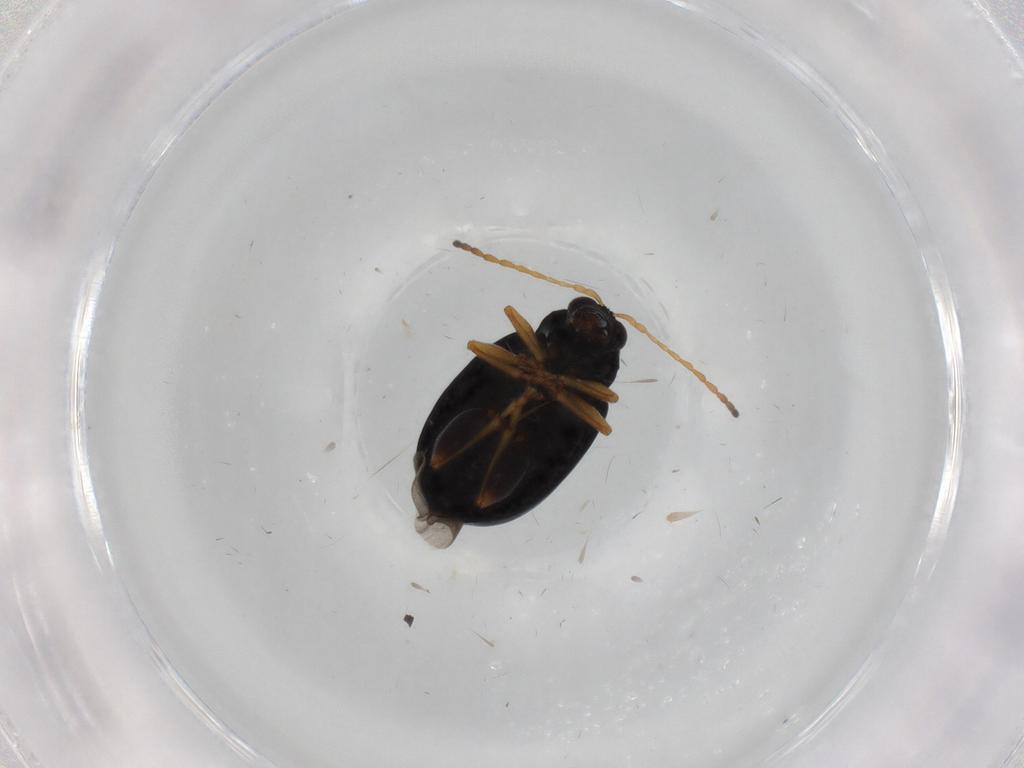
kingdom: Animalia
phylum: Arthropoda
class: Insecta
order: Coleoptera
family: Chrysomelidae
